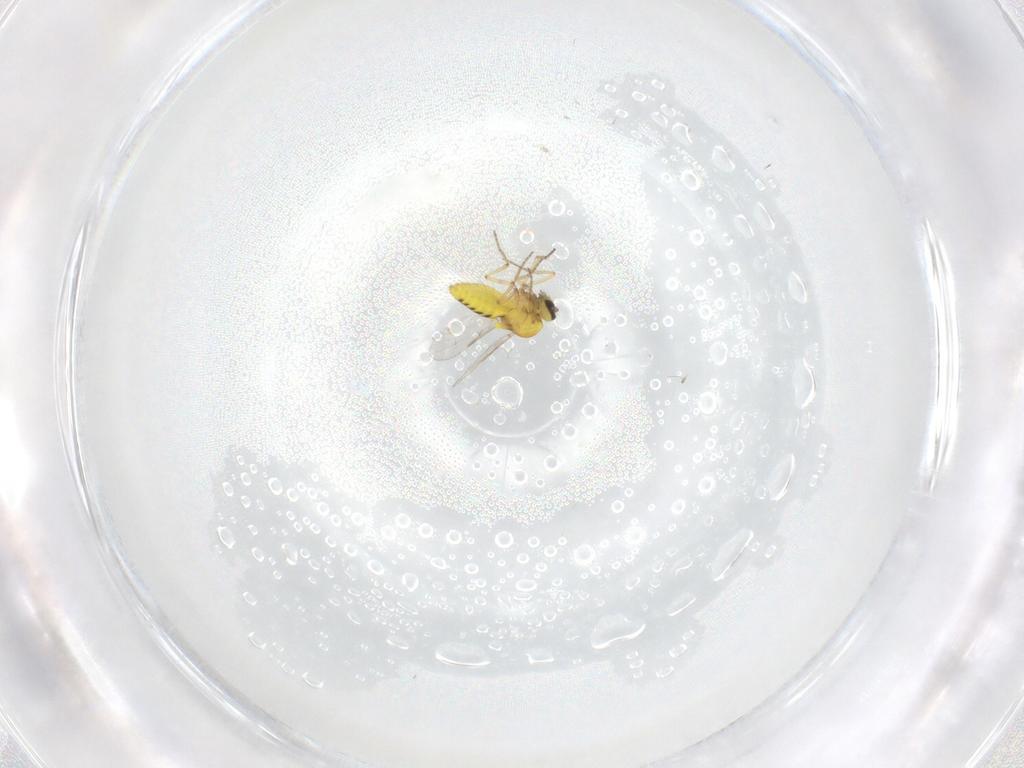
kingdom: Animalia
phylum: Arthropoda
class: Insecta
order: Diptera
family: Ceratopogonidae
